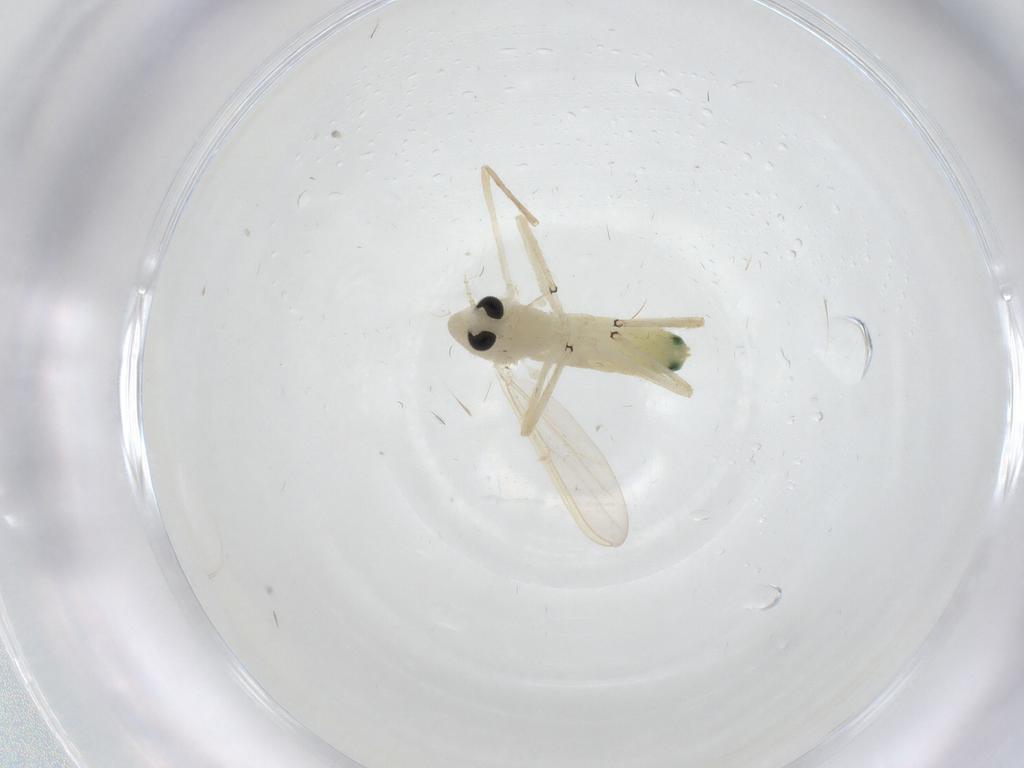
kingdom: Animalia
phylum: Arthropoda
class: Insecta
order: Diptera
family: Chironomidae
